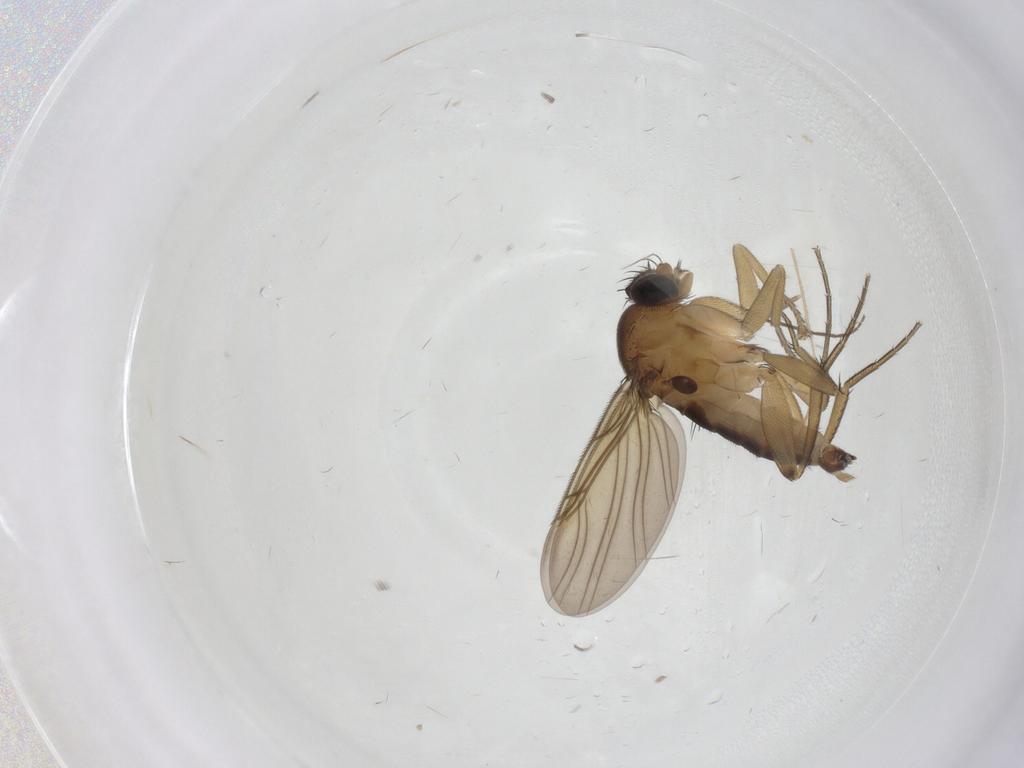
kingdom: Animalia
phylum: Arthropoda
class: Insecta
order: Diptera
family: Phoridae
